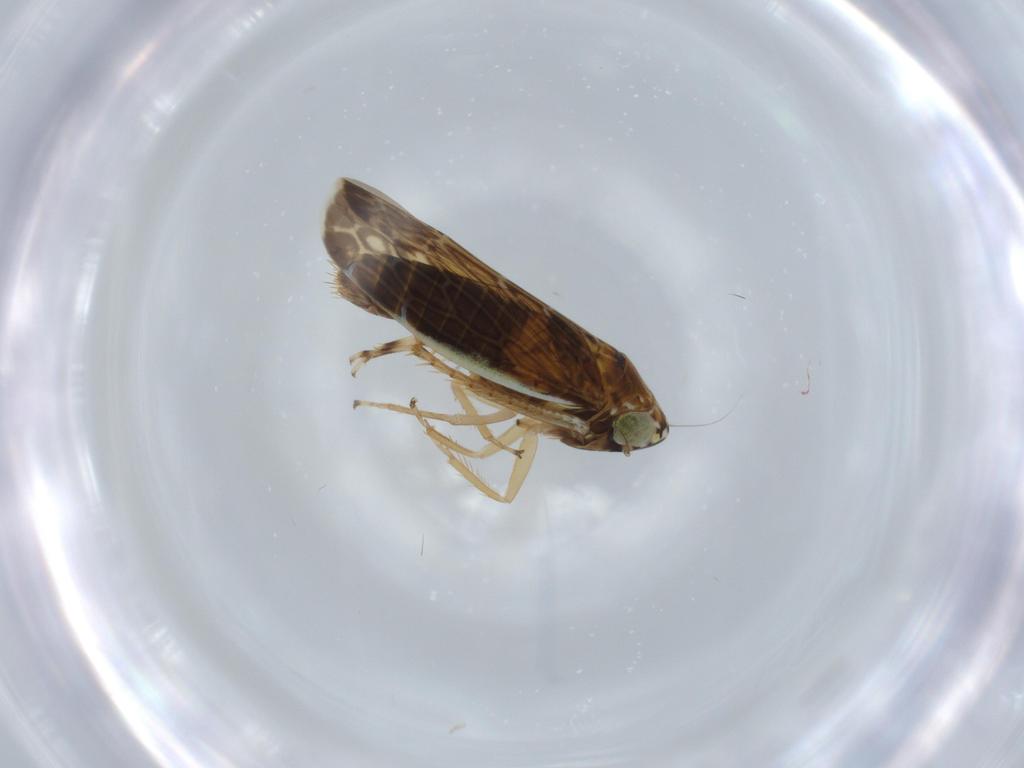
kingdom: Animalia
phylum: Arthropoda
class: Insecta
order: Hemiptera
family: Cicadellidae
